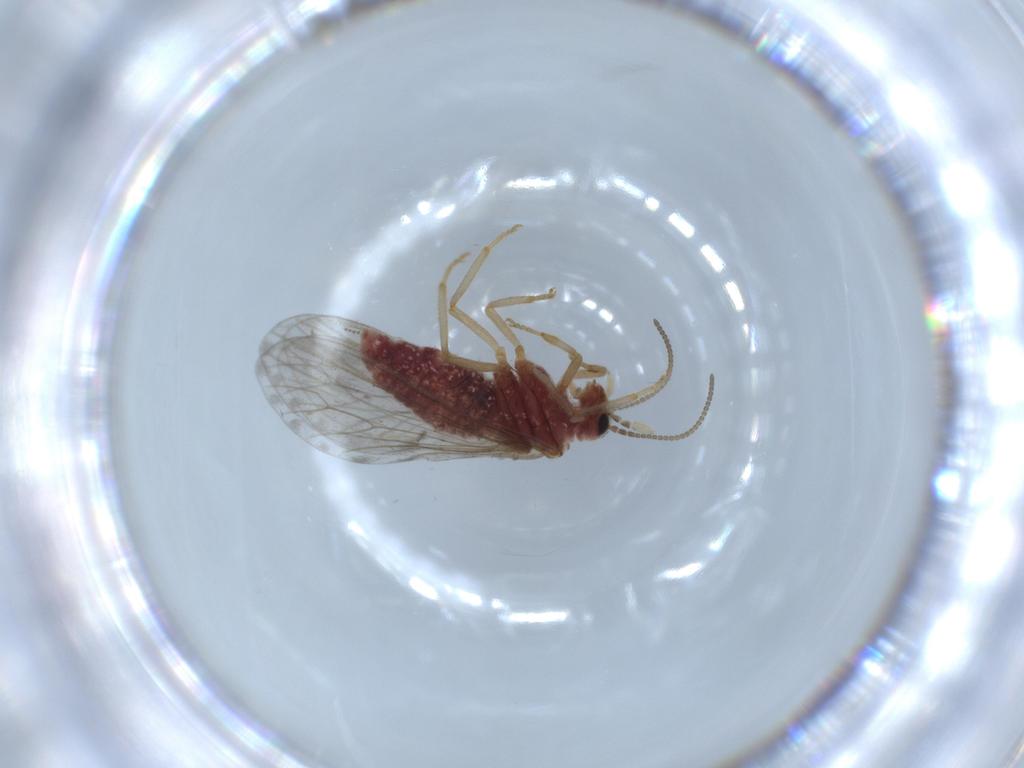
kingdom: Animalia
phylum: Arthropoda
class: Insecta
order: Neuroptera
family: Coniopterygidae
